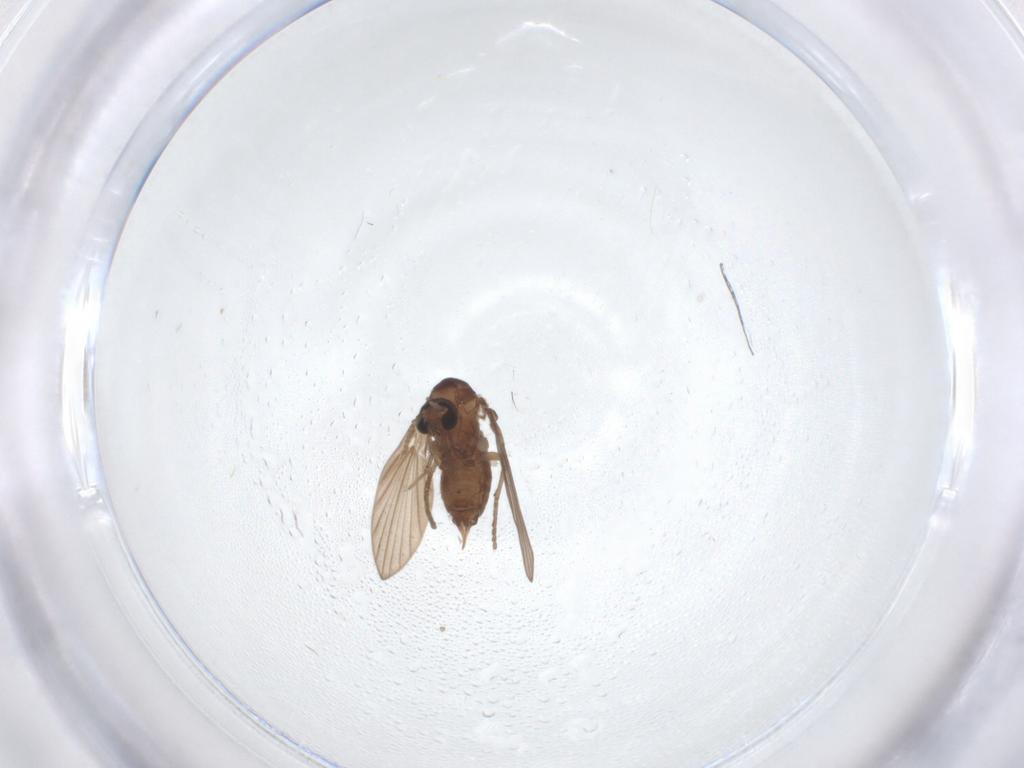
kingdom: Animalia
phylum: Arthropoda
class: Insecta
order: Diptera
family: Psychodidae
